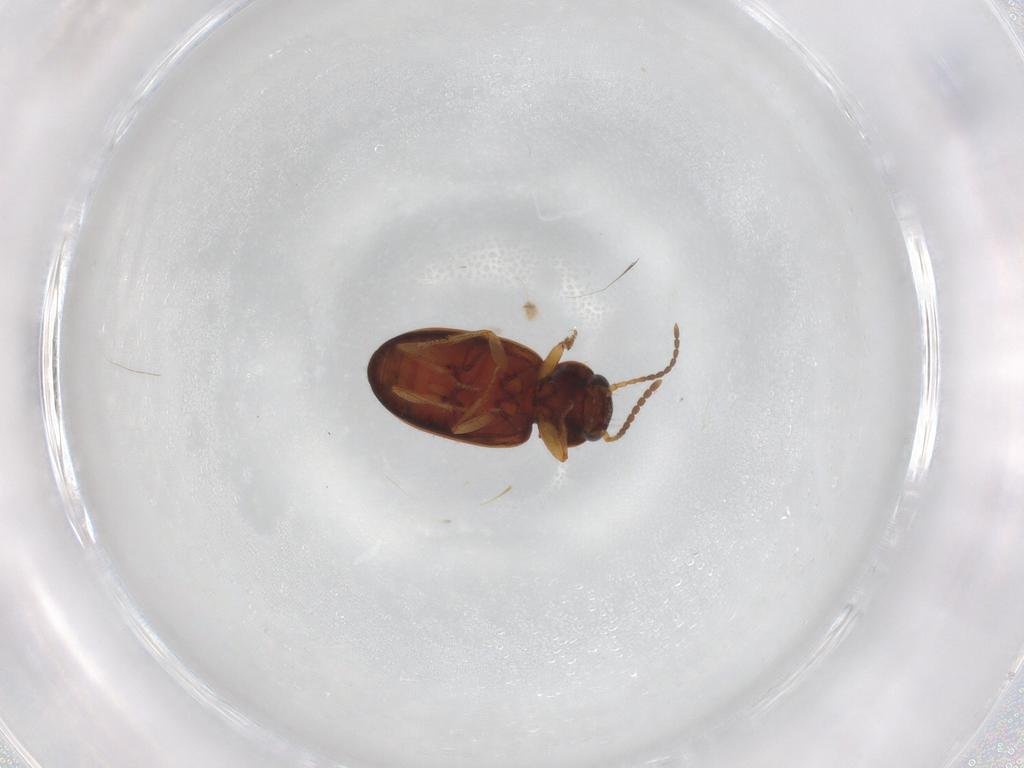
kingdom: Animalia
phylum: Arthropoda
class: Insecta
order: Coleoptera
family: Carabidae
